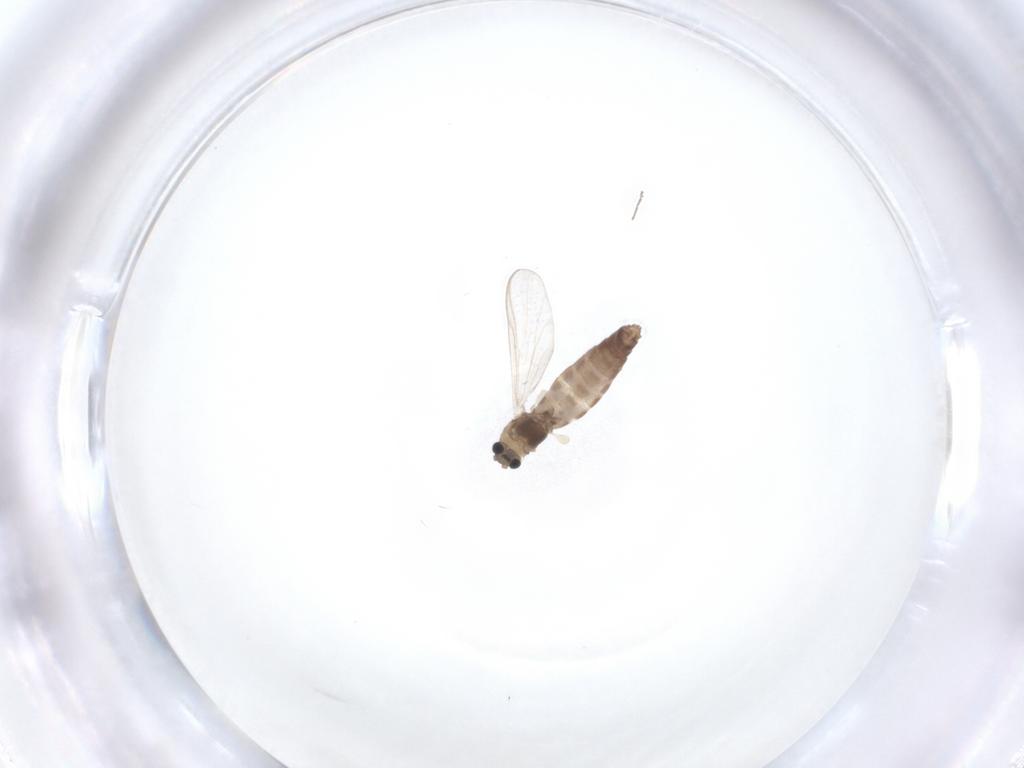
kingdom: Animalia
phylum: Arthropoda
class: Insecta
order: Diptera
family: Chironomidae
